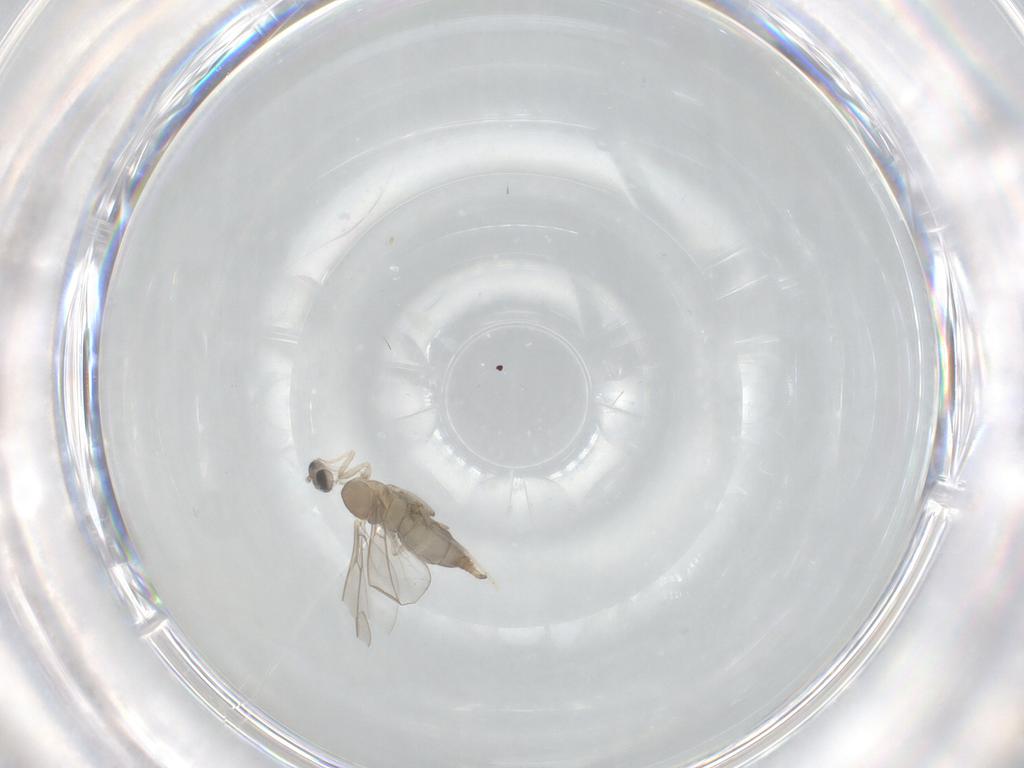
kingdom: Animalia
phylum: Arthropoda
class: Insecta
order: Diptera
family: Cecidomyiidae
